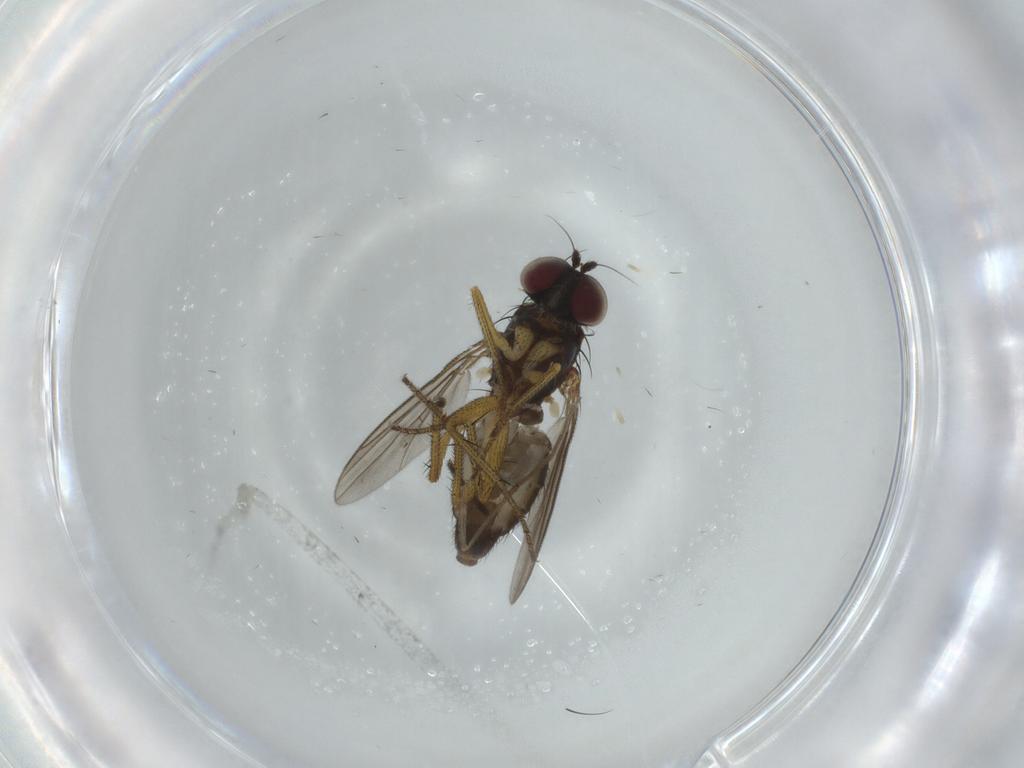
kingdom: Animalia
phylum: Arthropoda
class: Insecta
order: Diptera
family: Keroplatidae
